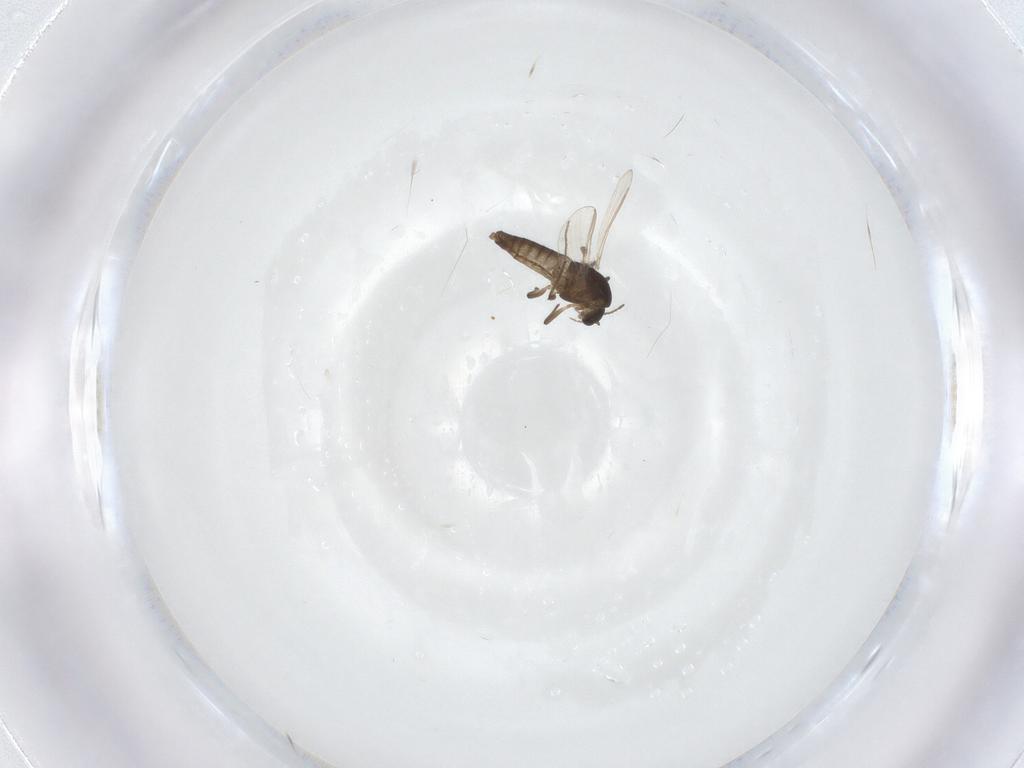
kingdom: Animalia
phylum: Arthropoda
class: Insecta
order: Diptera
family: Chironomidae
